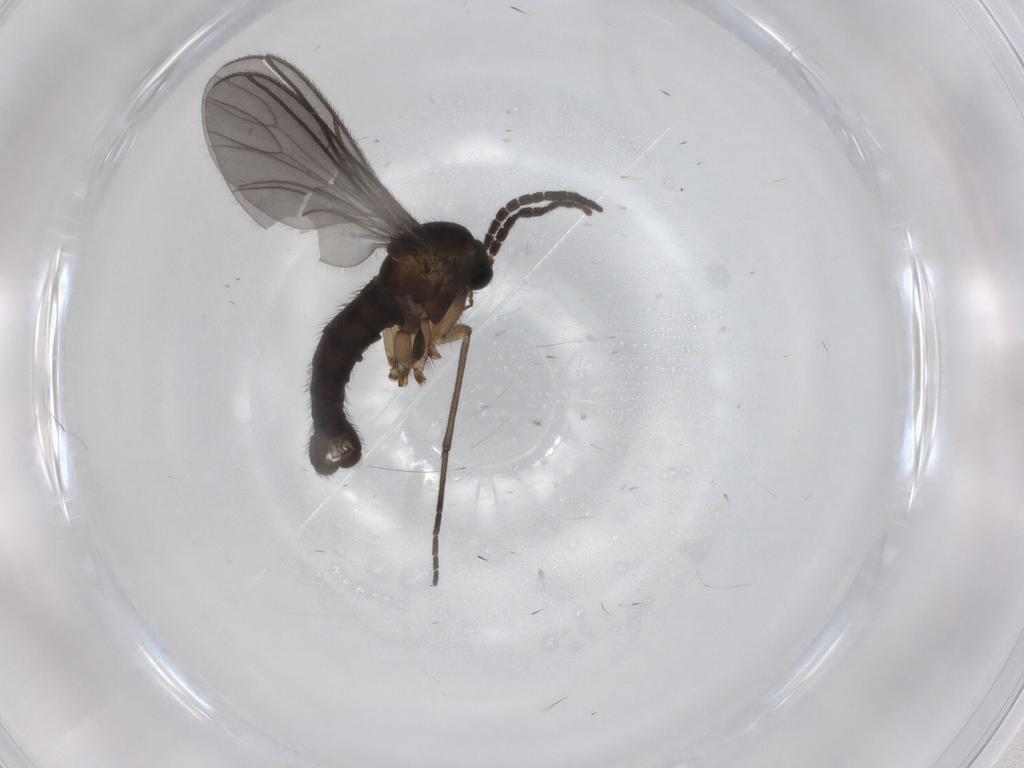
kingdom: Animalia
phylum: Arthropoda
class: Insecta
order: Diptera
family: Sciaridae
